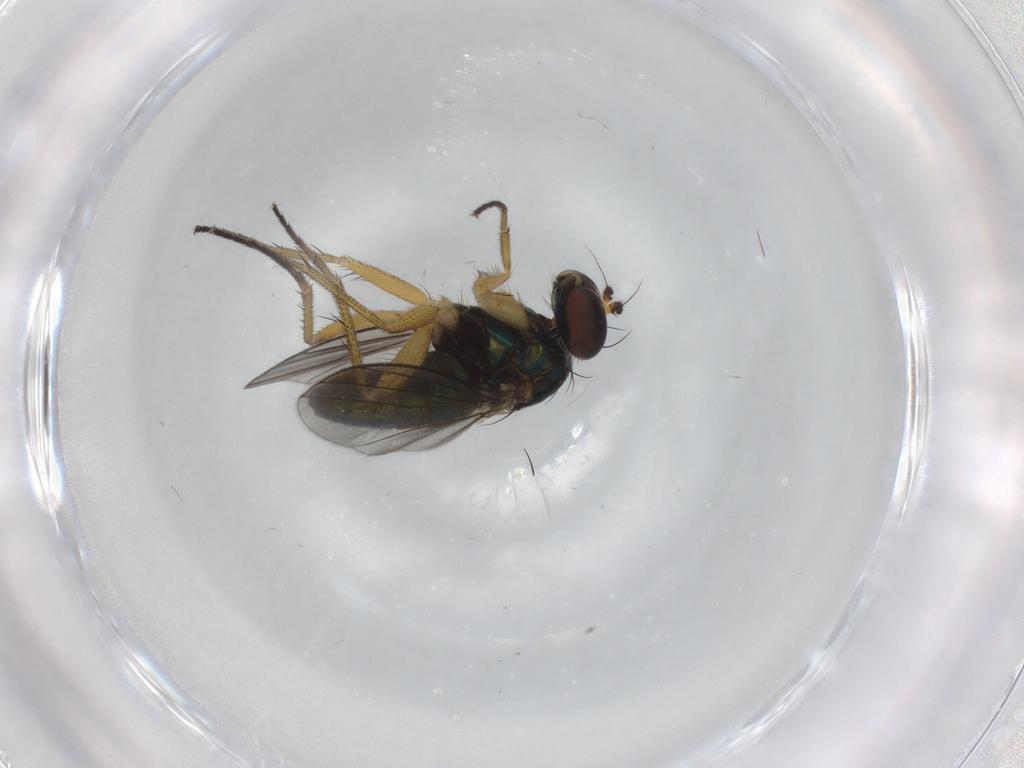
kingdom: Animalia
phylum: Arthropoda
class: Insecta
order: Diptera
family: Dolichopodidae
